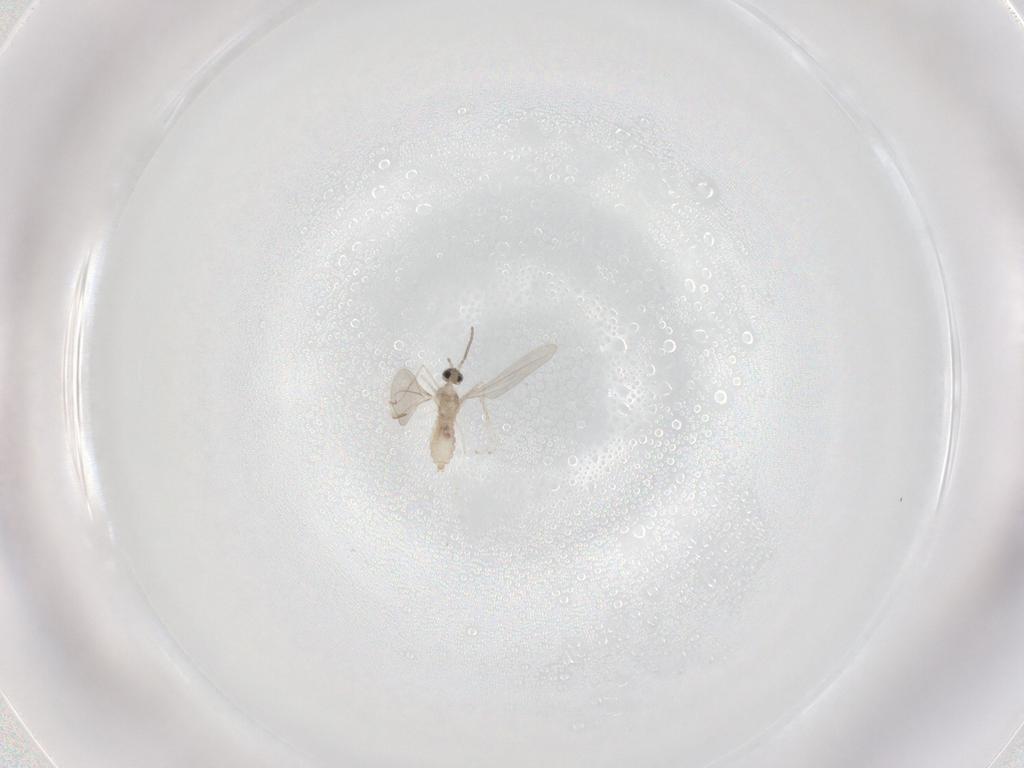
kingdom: Animalia
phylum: Arthropoda
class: Insecta
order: Diptera
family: Cecidomyiidae
